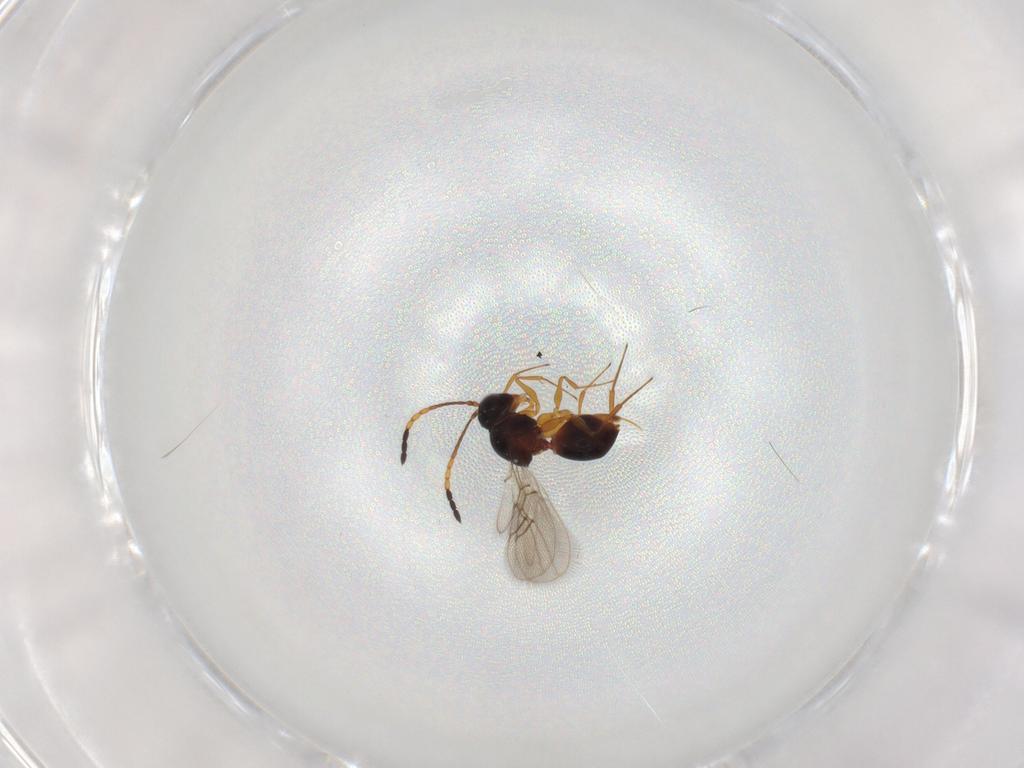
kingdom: Animalia
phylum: Arthropoda
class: Insecta
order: Hymenoptera
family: Figitidae
